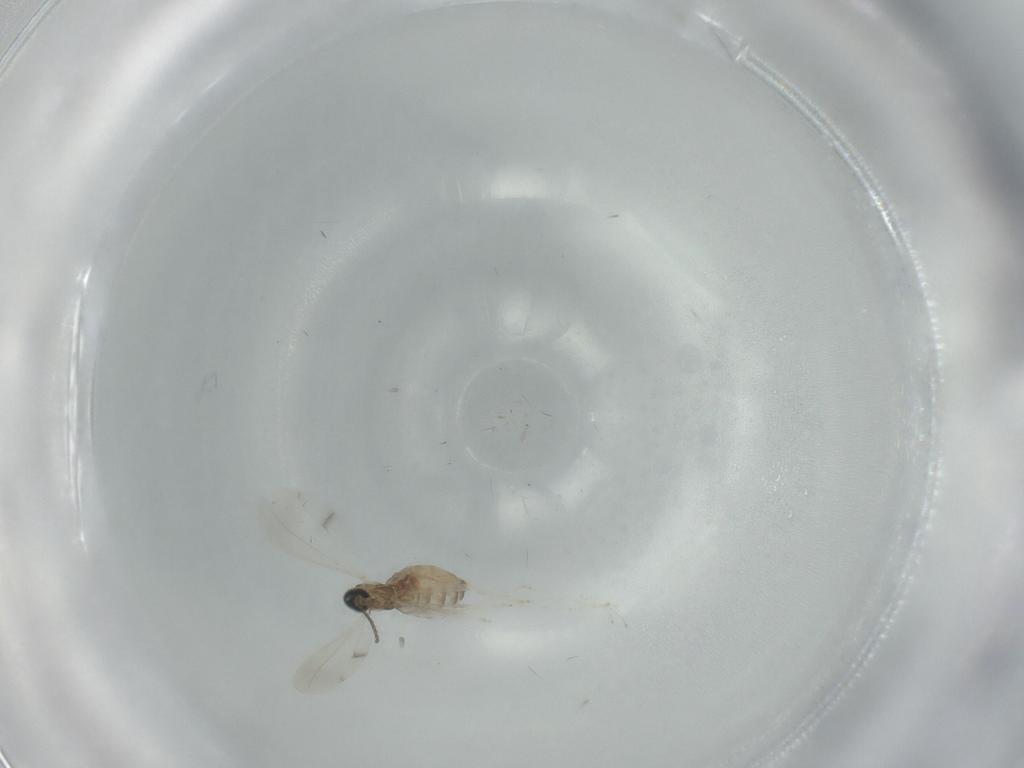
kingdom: Animalia
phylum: Arthropoda
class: Insecta
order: Diptera
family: Cecidomyiidae
